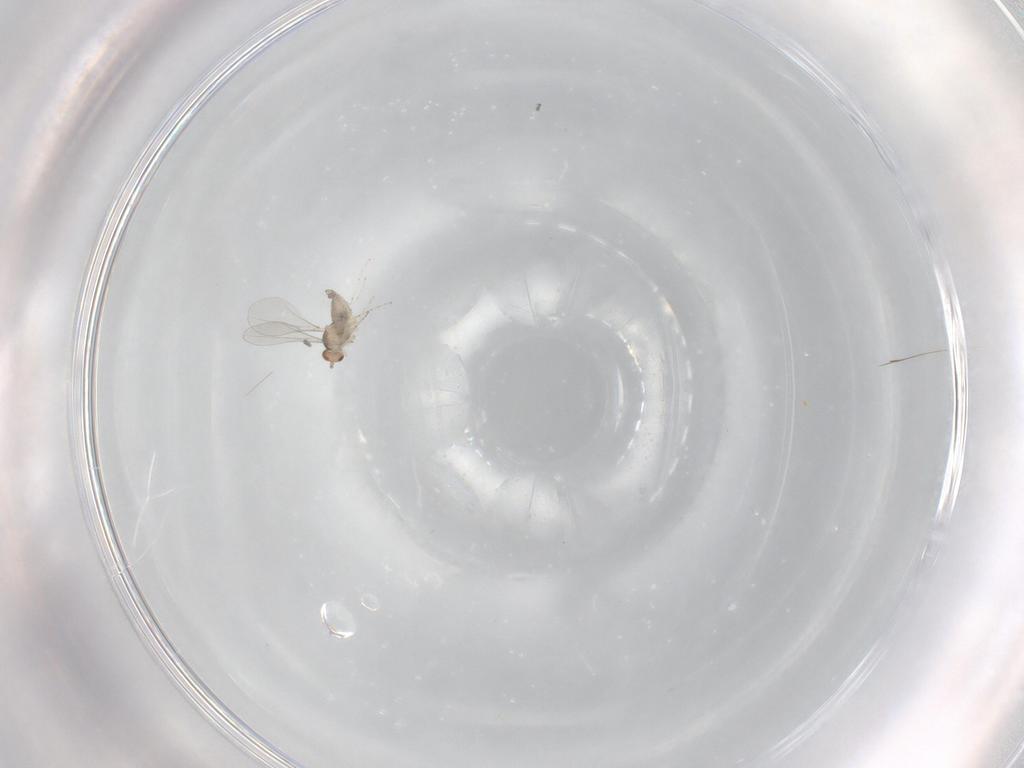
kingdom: Animalia
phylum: Arthropoda
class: Insecta
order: Diptera
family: Cecidomyiidae
